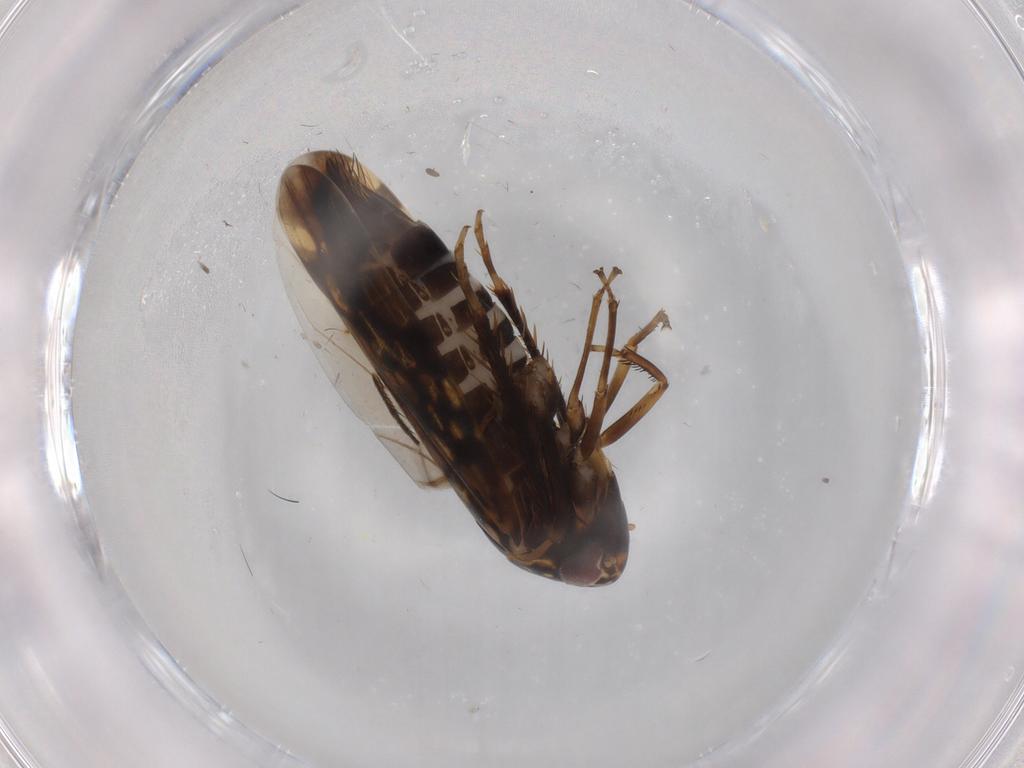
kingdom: Animalia
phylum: Arthropoda
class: Insecta
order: Hemiptera
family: Cicadellidae
